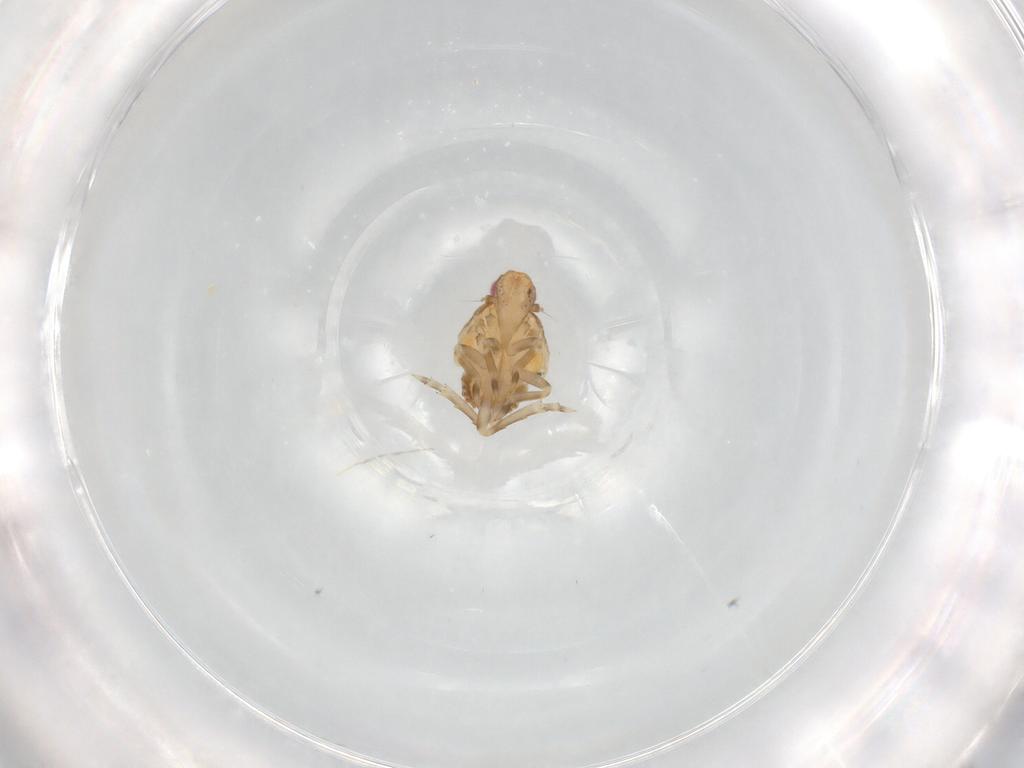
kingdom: Animalia
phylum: Arthropoda
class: Insecta
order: Hemiptera
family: Flatidae
